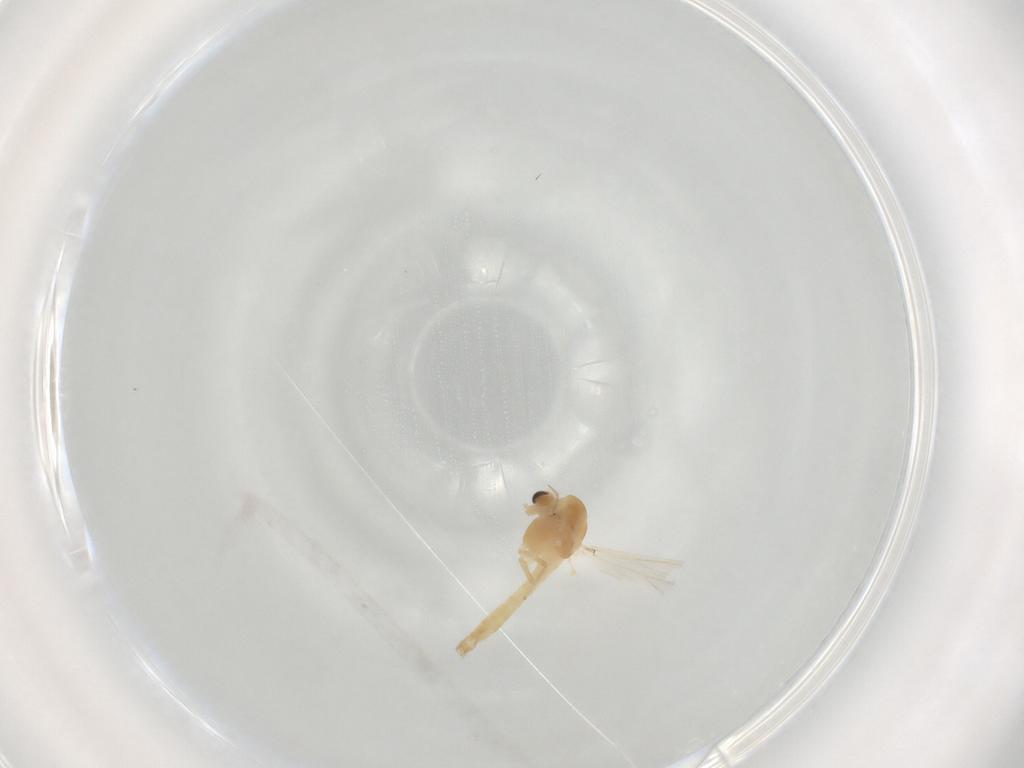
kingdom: Animalia
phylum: Arthropoda
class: Insecta
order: Diptera
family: Chironomidae
